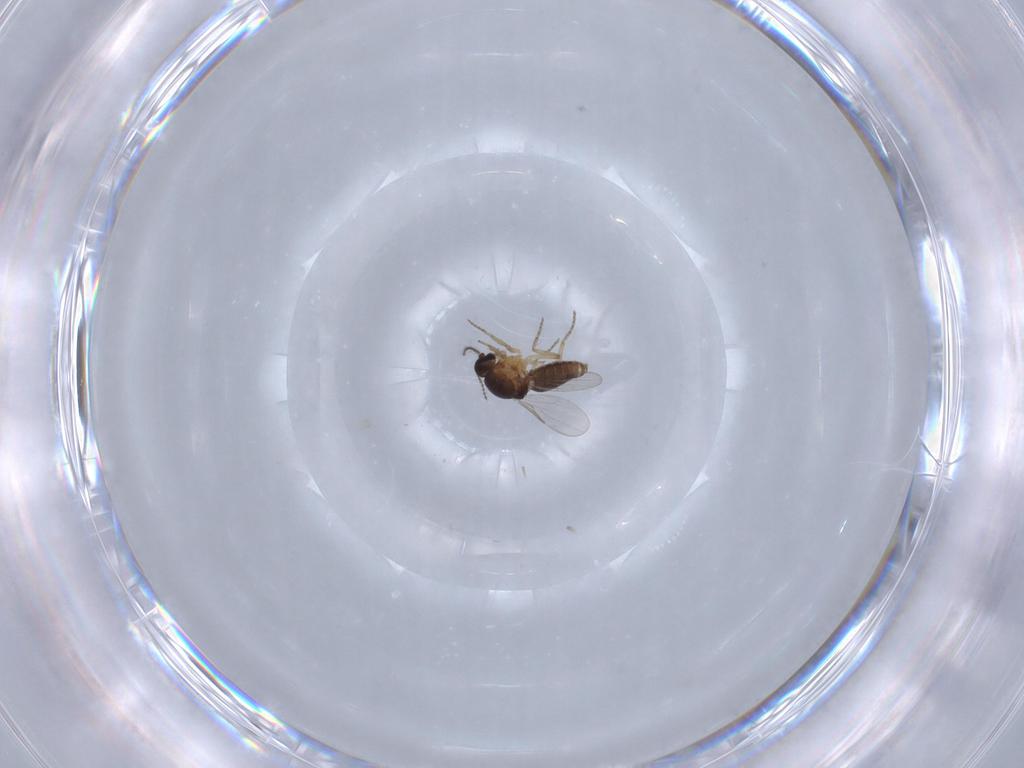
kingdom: Animalia
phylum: Arthropoda
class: Insecta
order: Diptera
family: Ceratopogonidae
